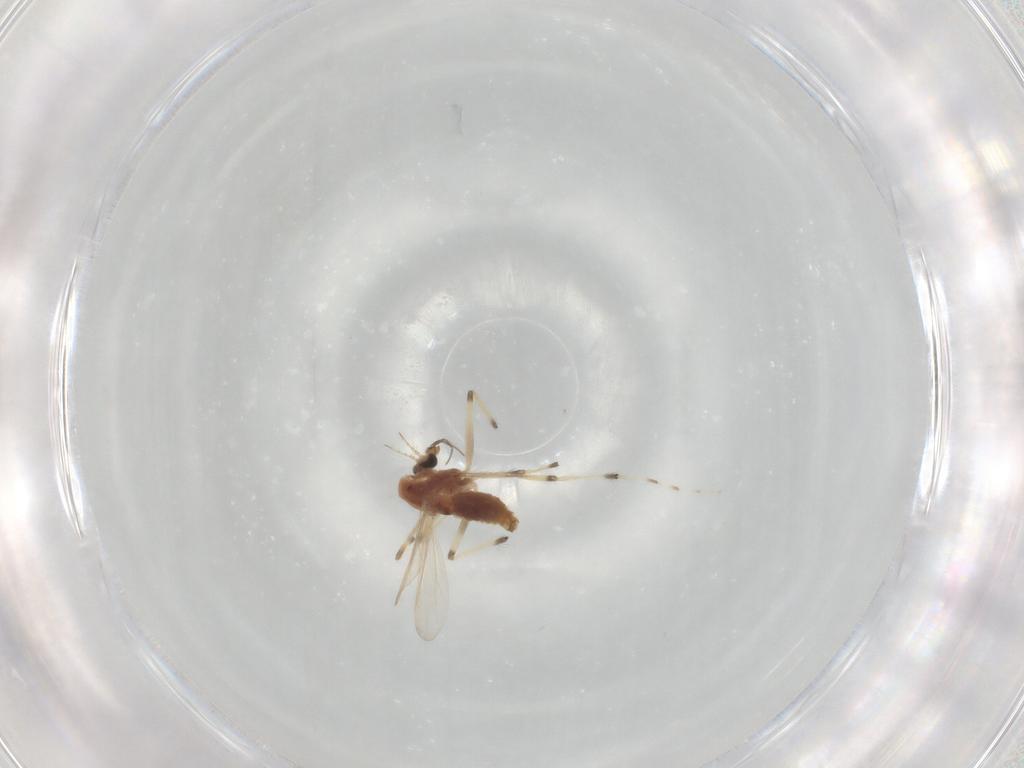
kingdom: Animalia
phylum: Arthropoda
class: Insecta
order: Diptera
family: Chironomidae
